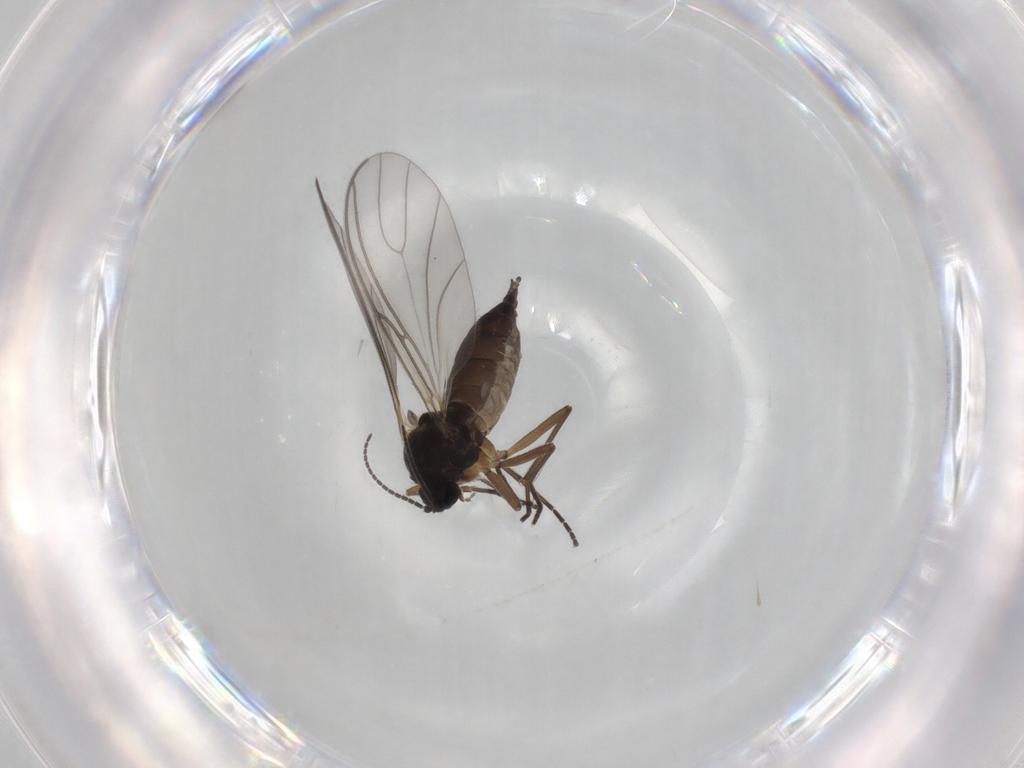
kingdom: Animalia
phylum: Arthropoda
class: Insecta
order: Diptera
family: Sciaridae
